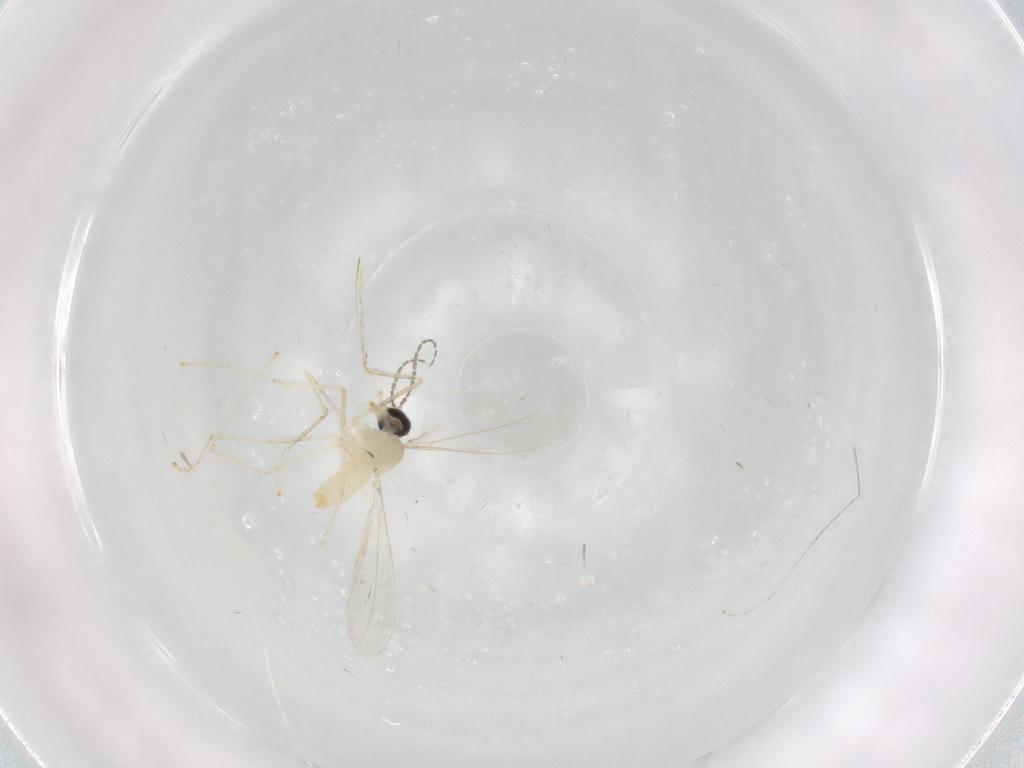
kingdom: Animalia
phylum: Arthropoda
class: Insecta
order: Diptera
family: Cecidomyiidae
